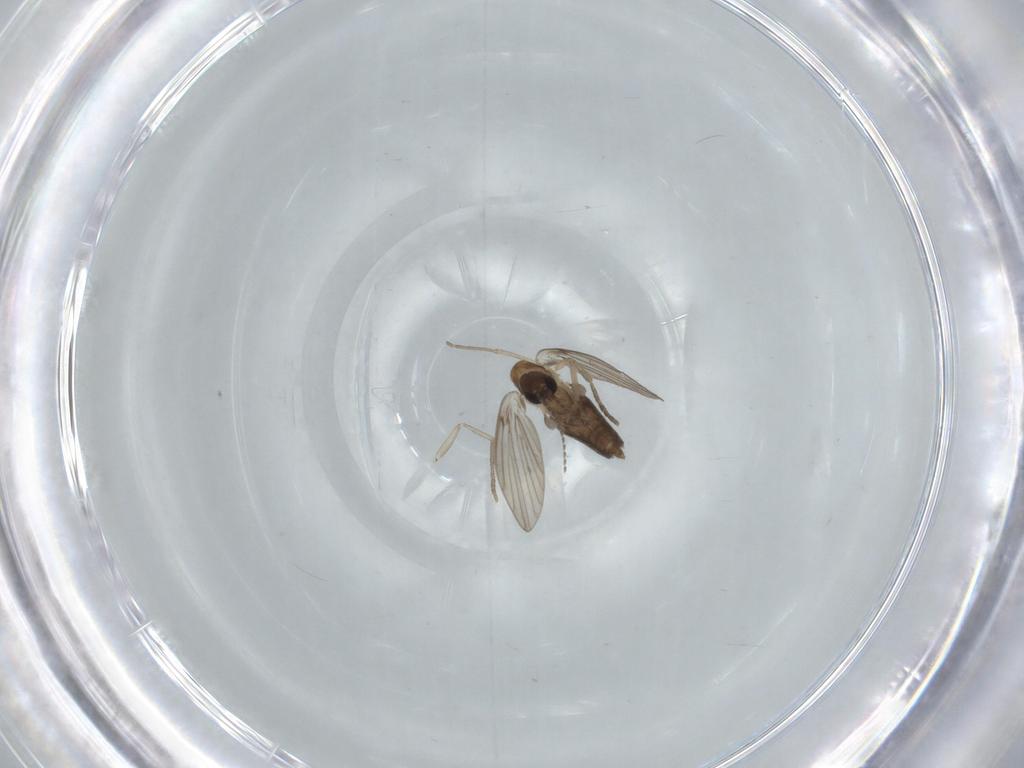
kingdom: Animalia
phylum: Arthropoda
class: Insecta
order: Diptera
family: Psychodidae
